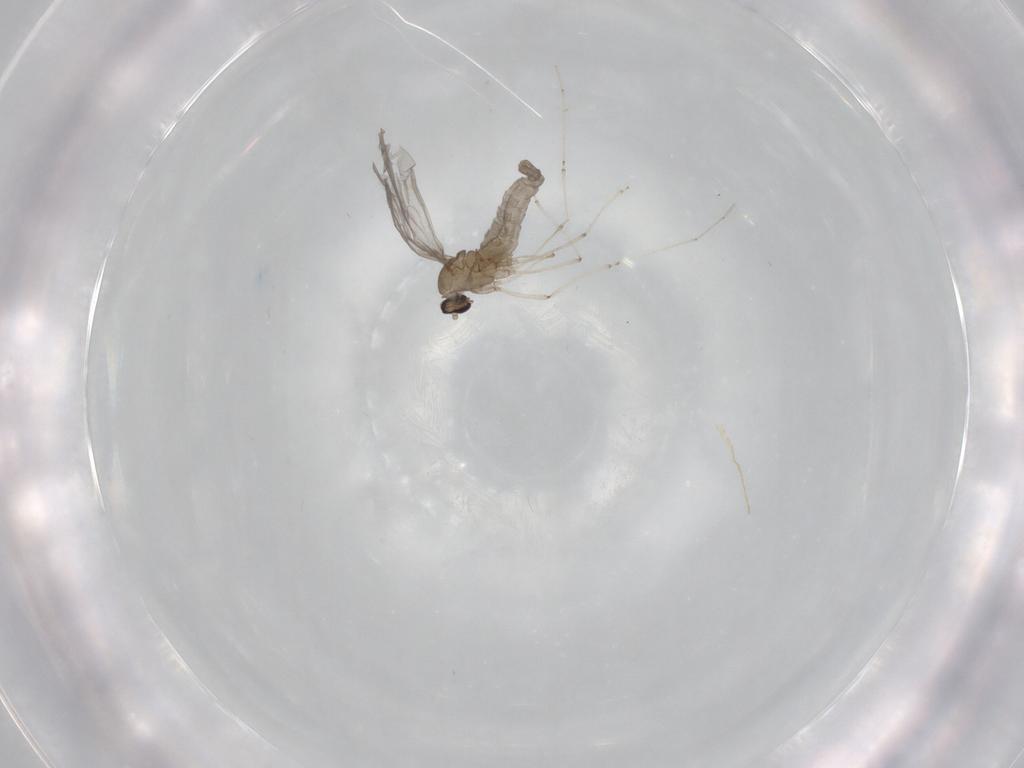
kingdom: Animalia
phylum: Arthropoda
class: Insecta
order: Diptera
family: Cecidomyiidae
